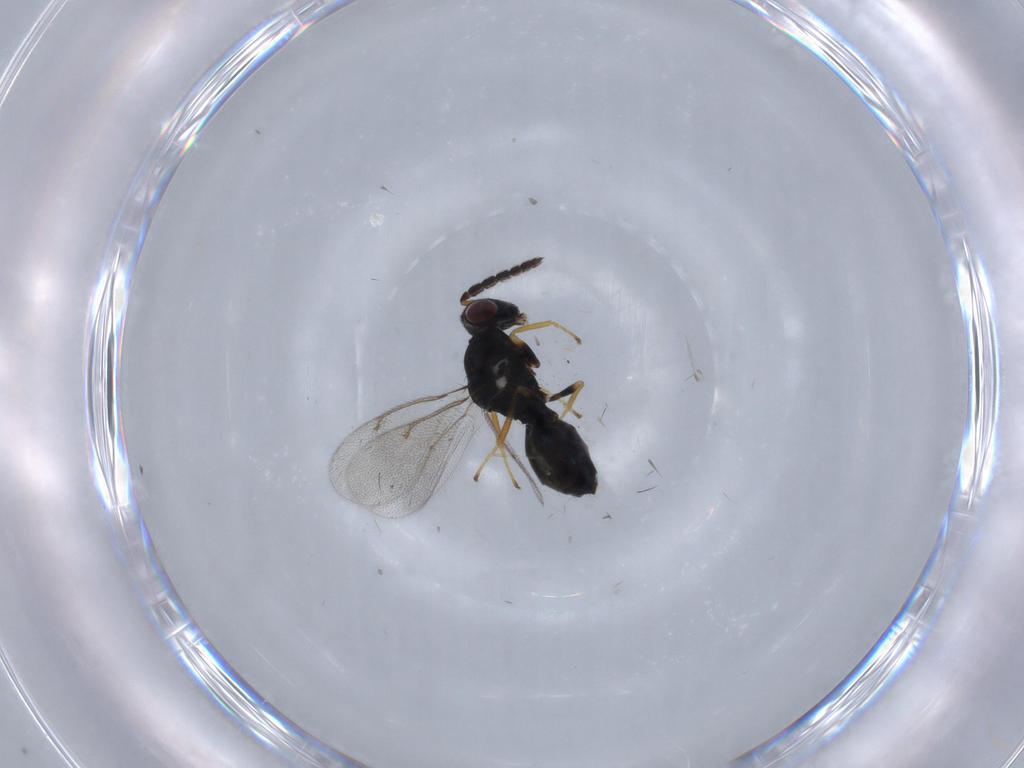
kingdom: Animalia
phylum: Arthropoda
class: Insecta
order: Hymenoptera
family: Eulophidae
